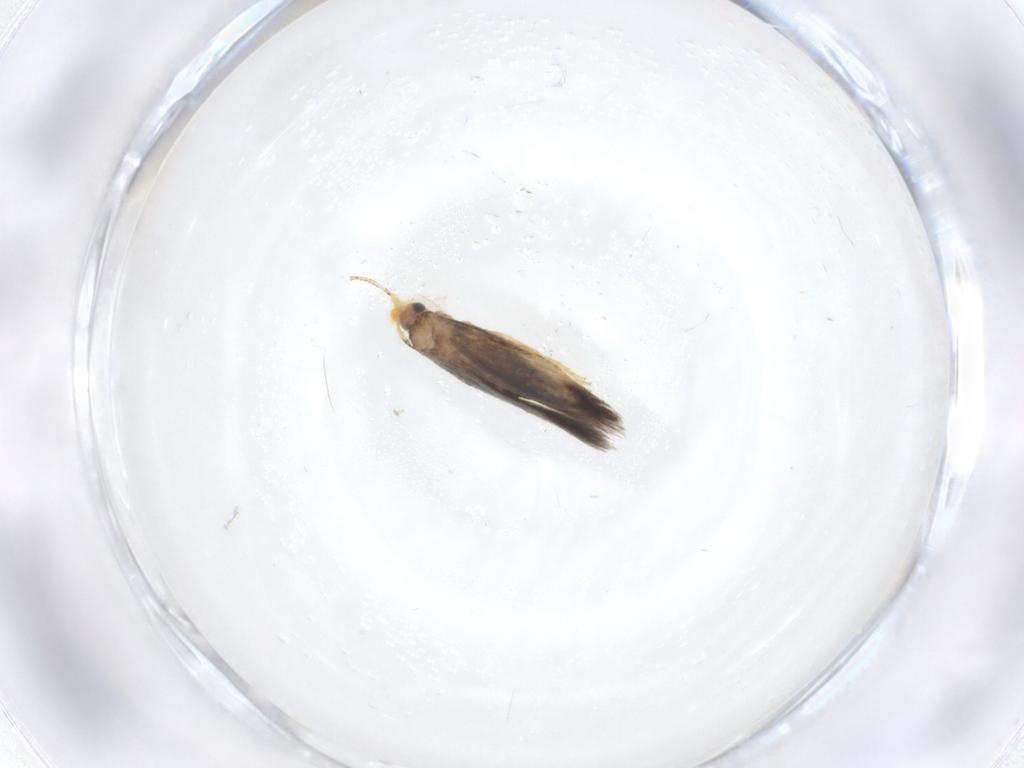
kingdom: Animalia
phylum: Arthropoda
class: Insecta
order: Lepidoptera
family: Nepticulidae
